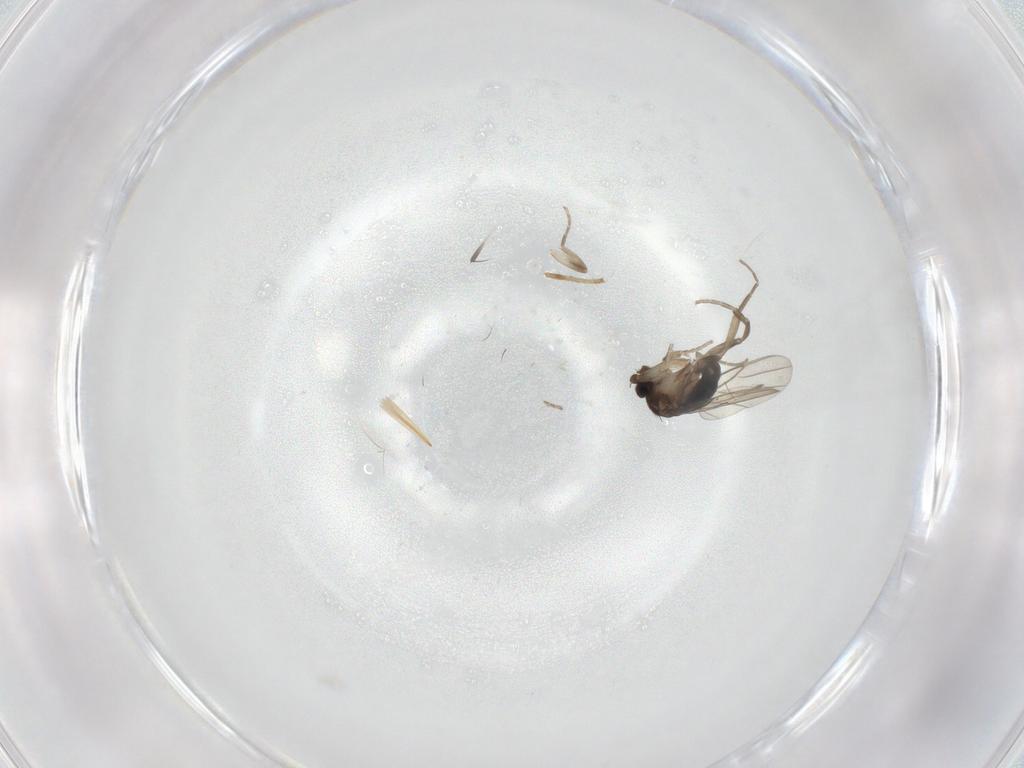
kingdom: Animalia
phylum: Arthropoda
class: Insecta
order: Diptera
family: Phoridae
